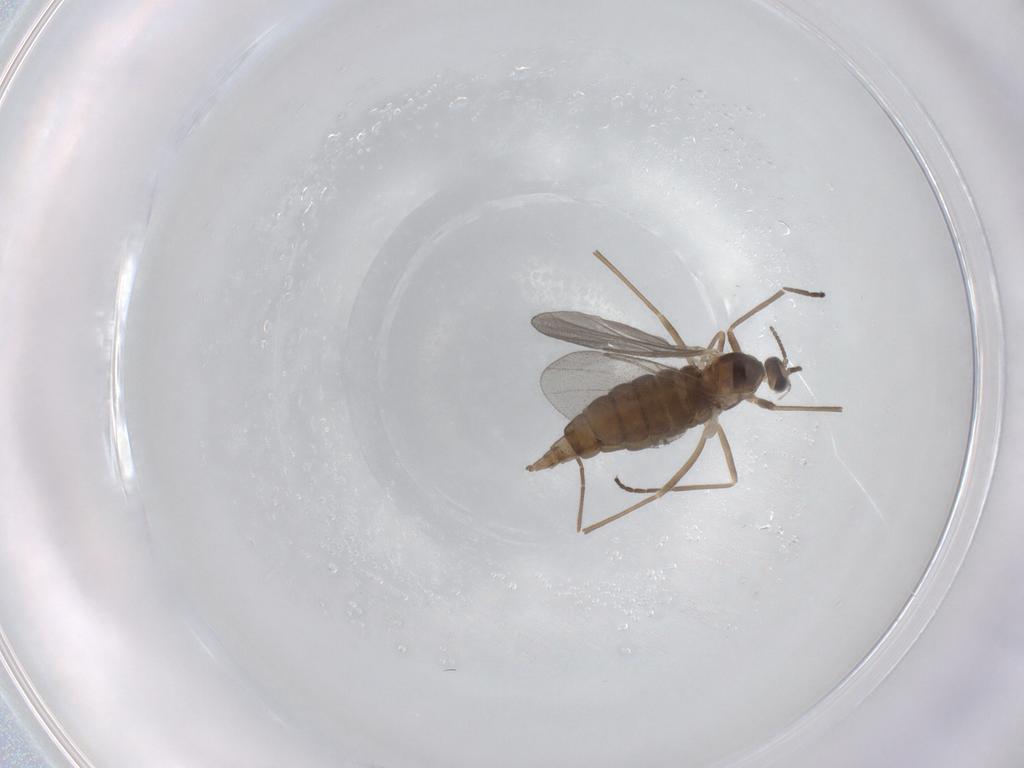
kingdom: Animalia
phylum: Arthropoda
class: Insecta
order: Diptera
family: Cecidomyiidae
